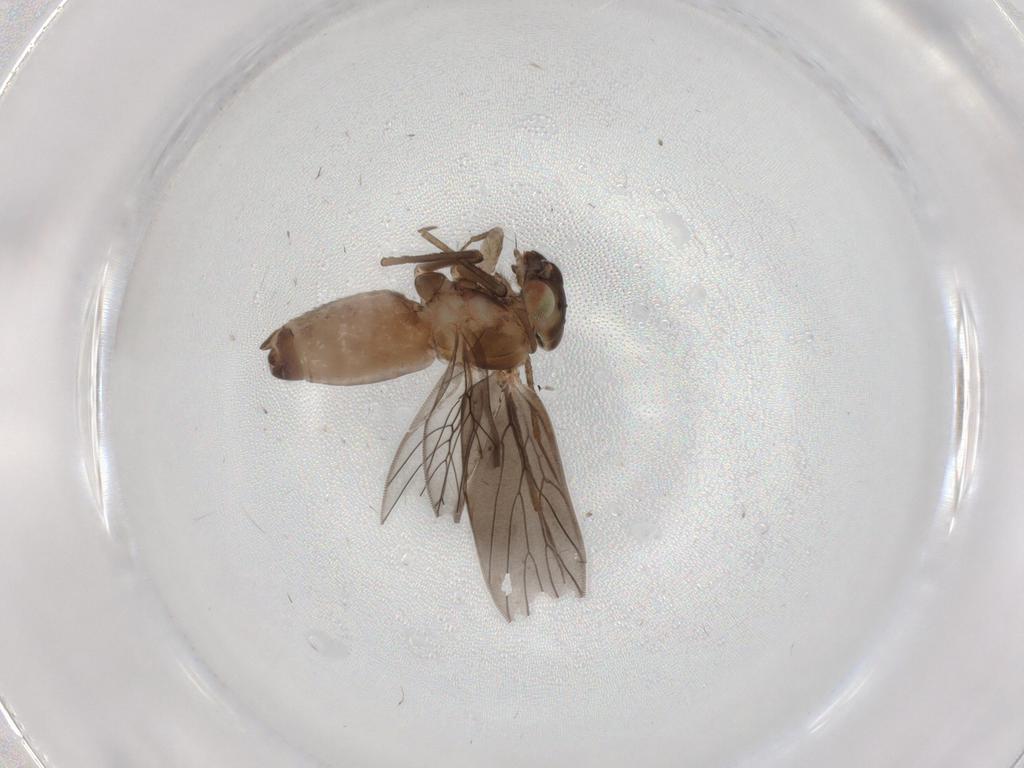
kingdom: Animalia
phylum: Arthropoda
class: Insecta
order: Psocodea
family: Lepidopsocidae
